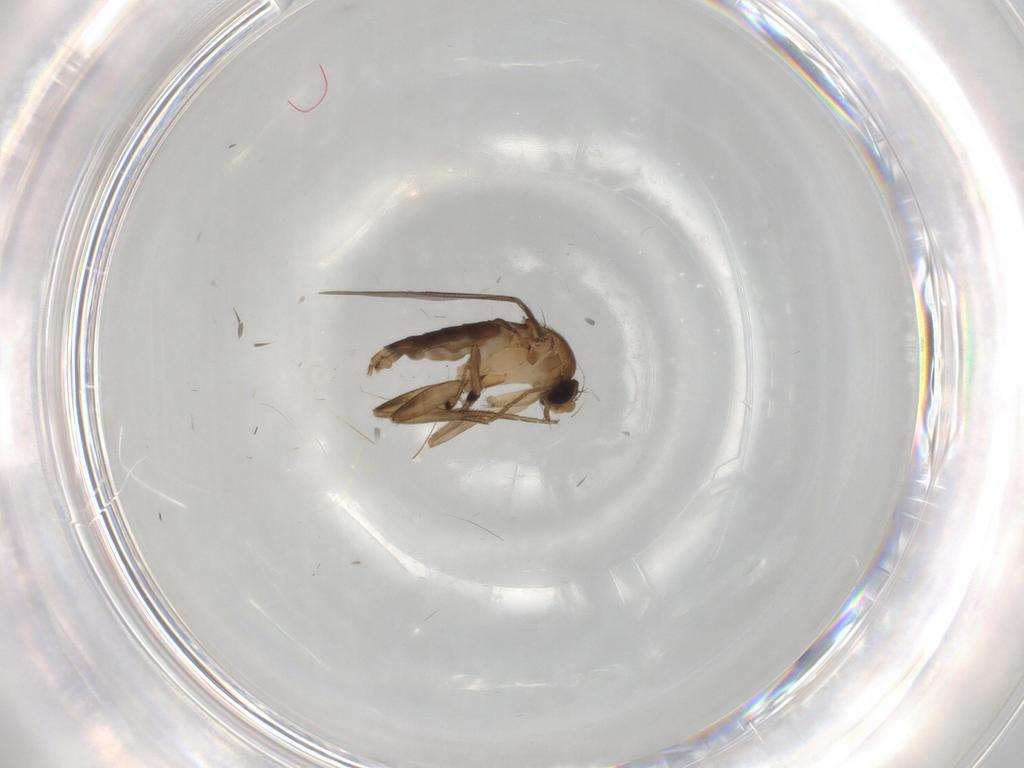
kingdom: Animalia
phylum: Arthropoda
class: Insecta
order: Diptera
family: Phoridae
